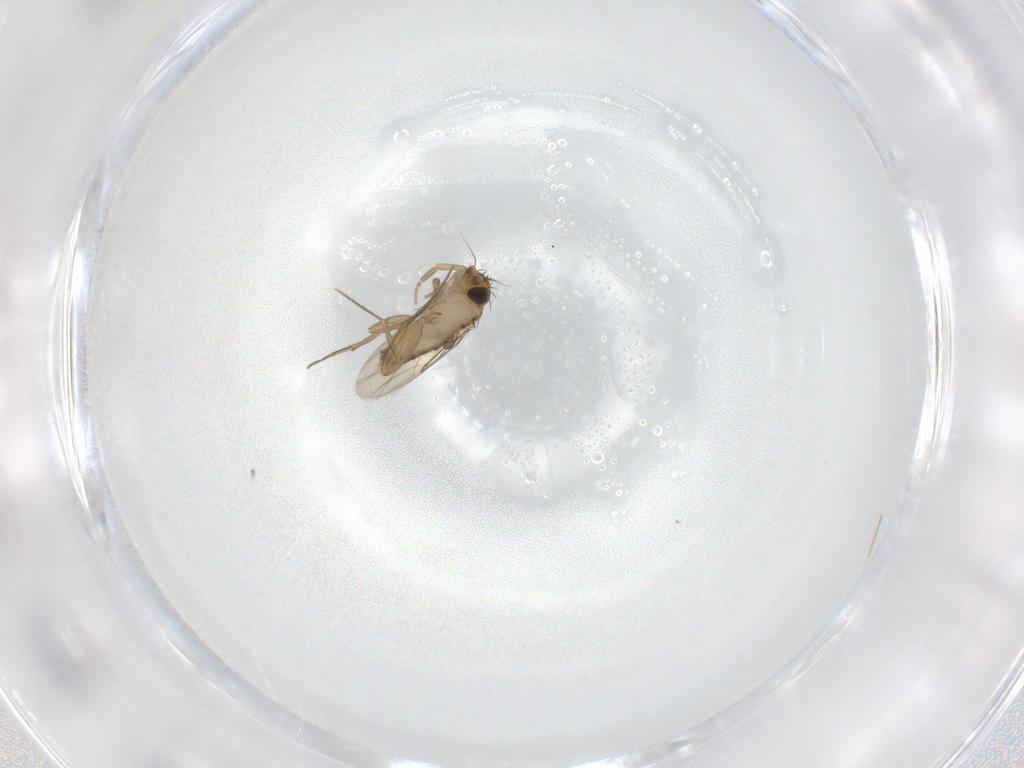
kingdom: Animalia
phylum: Arthropoda
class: Insecta
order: Diptera
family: Phoridae
